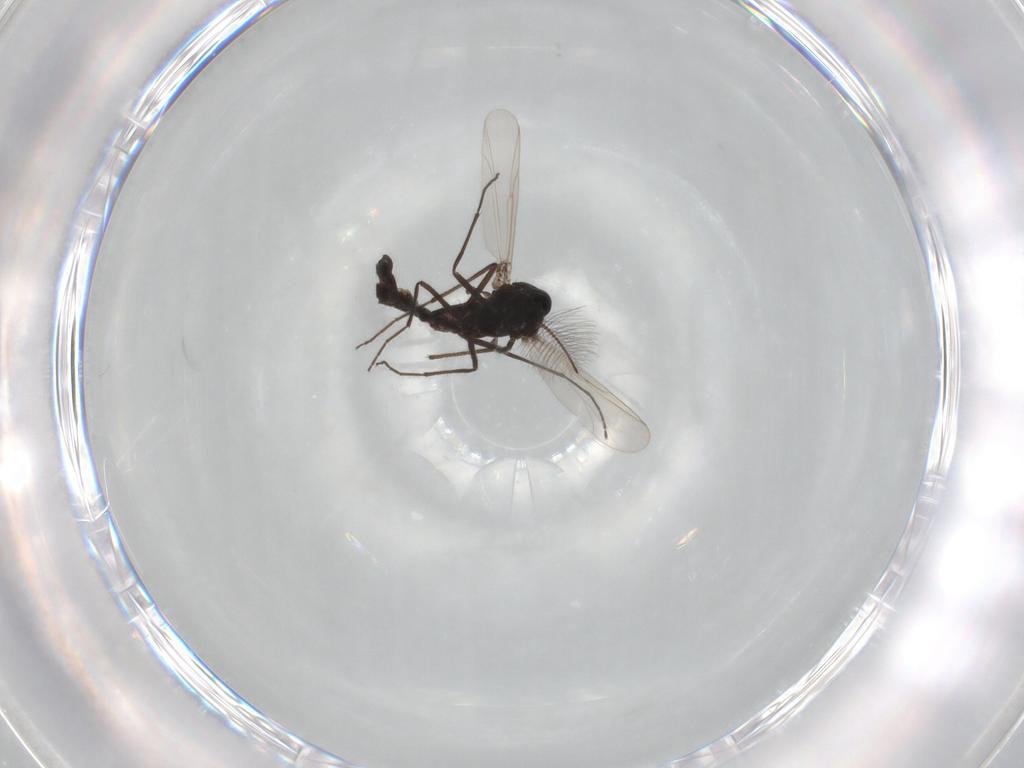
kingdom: Animalia
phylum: Arthropoda
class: Insecta
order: Diptera
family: Chironomidae
